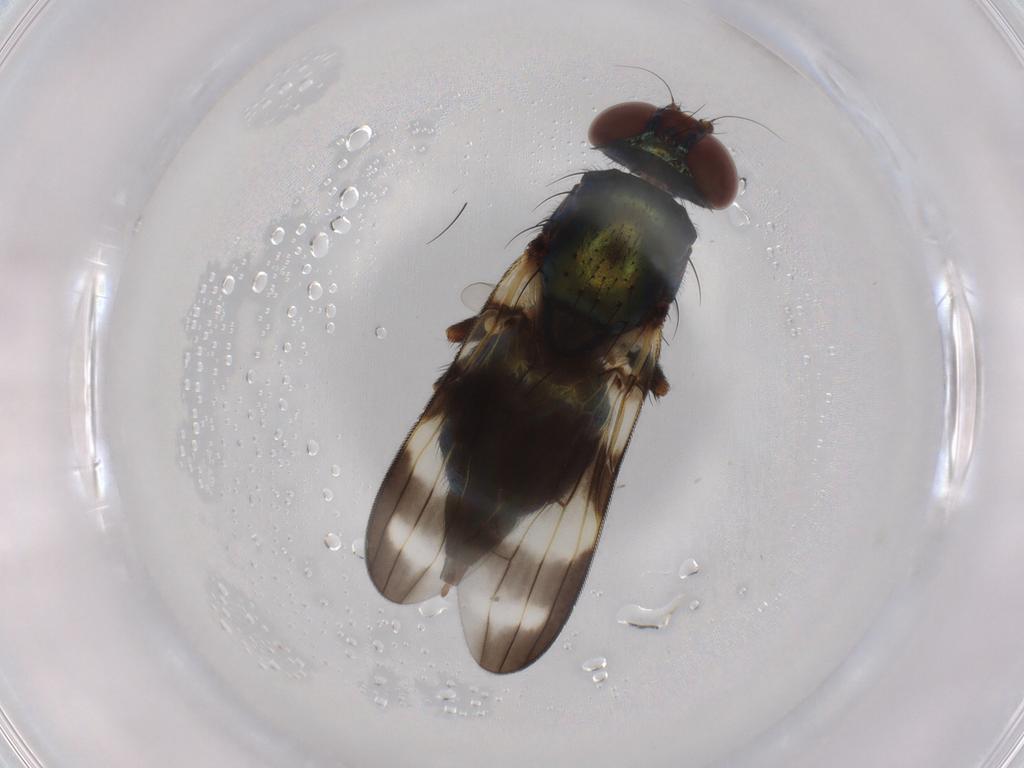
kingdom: Animalia
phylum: Arthropoda
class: Insecta
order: Diptera
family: Ulidiidae
